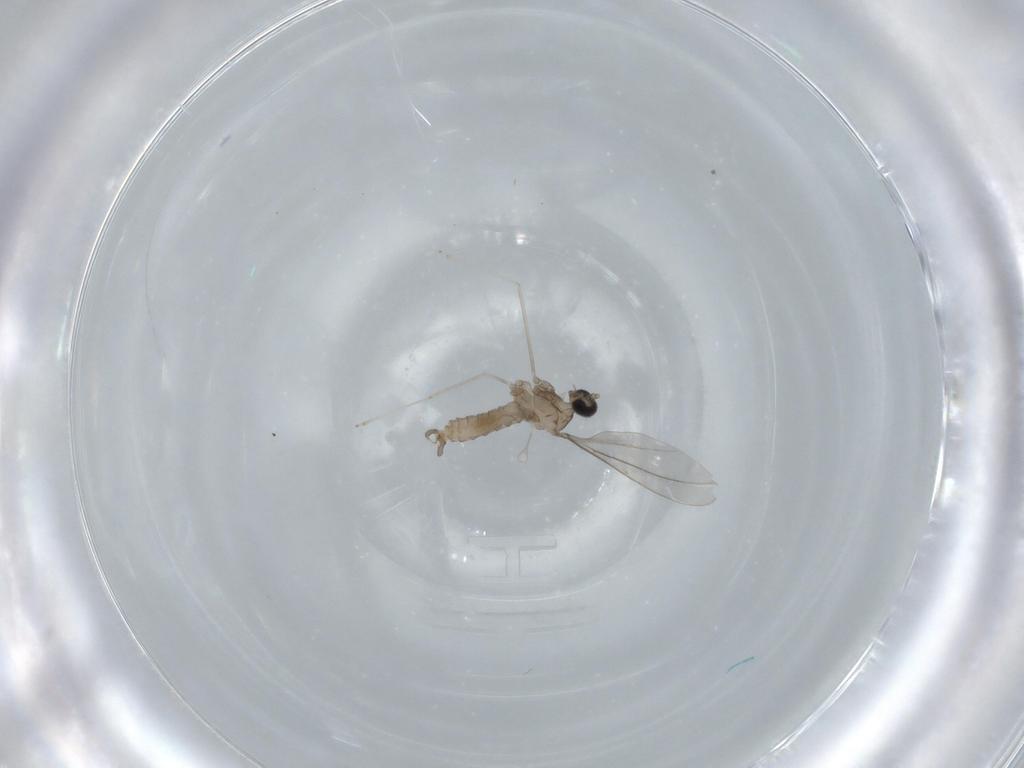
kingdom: Animalia
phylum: Arthropoda
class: Insecta
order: Diptera
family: Cecidomyiidae
